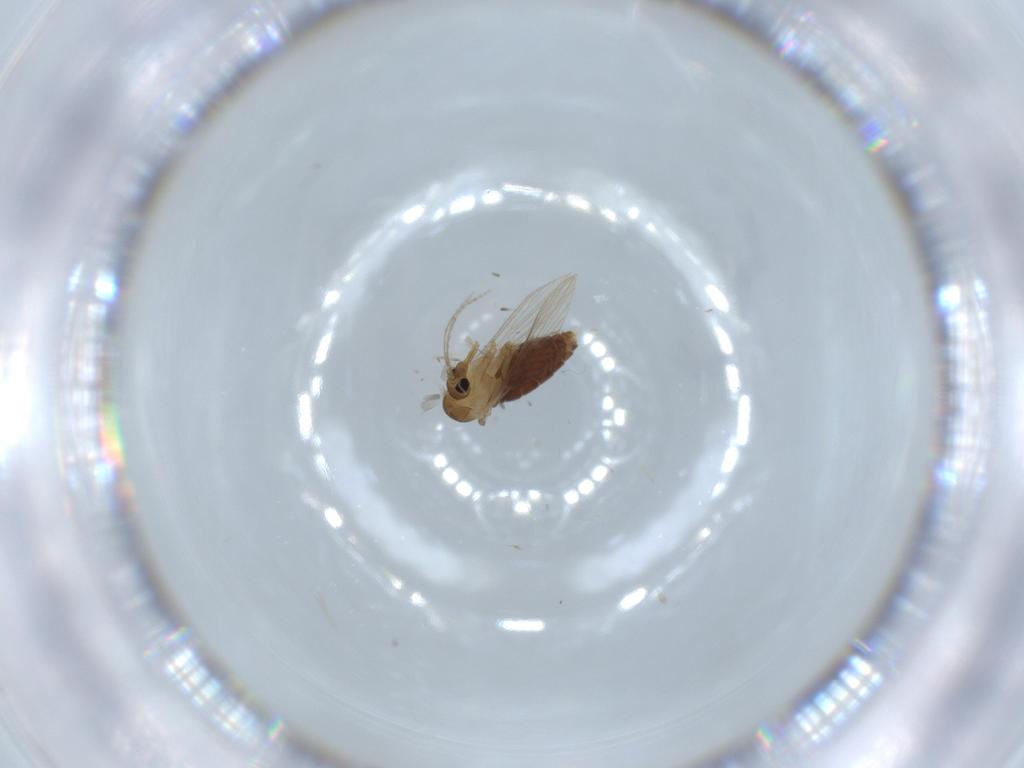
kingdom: Animalia
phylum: Arthropoda
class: Insecta
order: Diptera
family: Psychodidae
